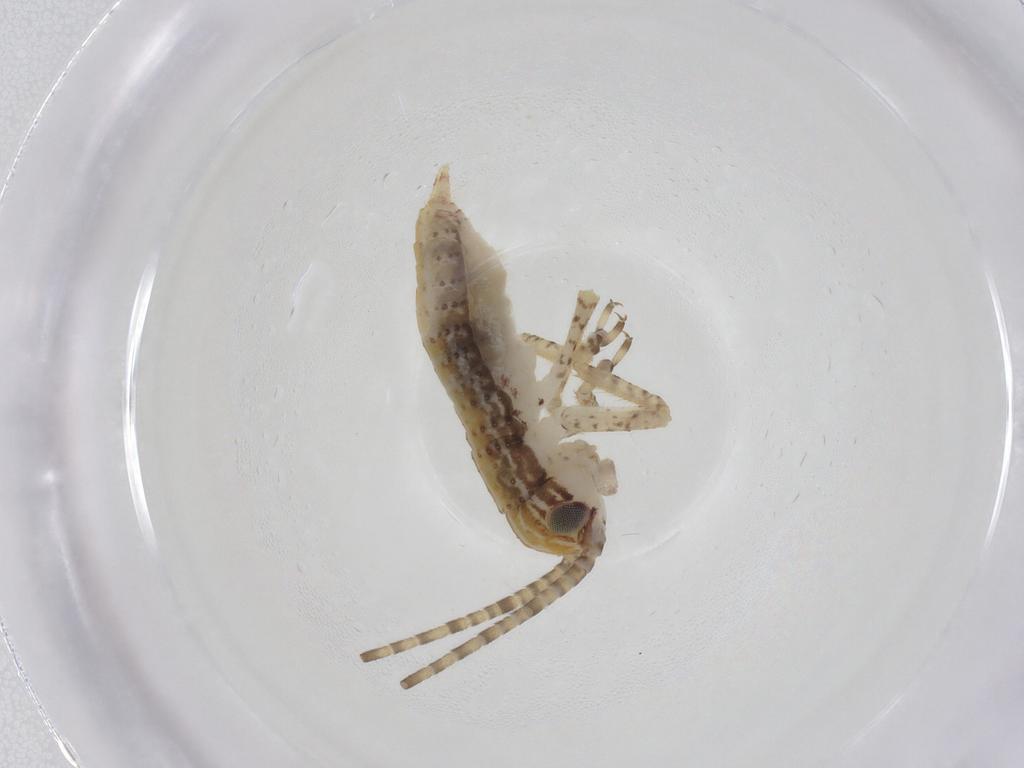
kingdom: Animalia
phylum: Arthropoda
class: Insecta
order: Orthoptera
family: Gryllidae
